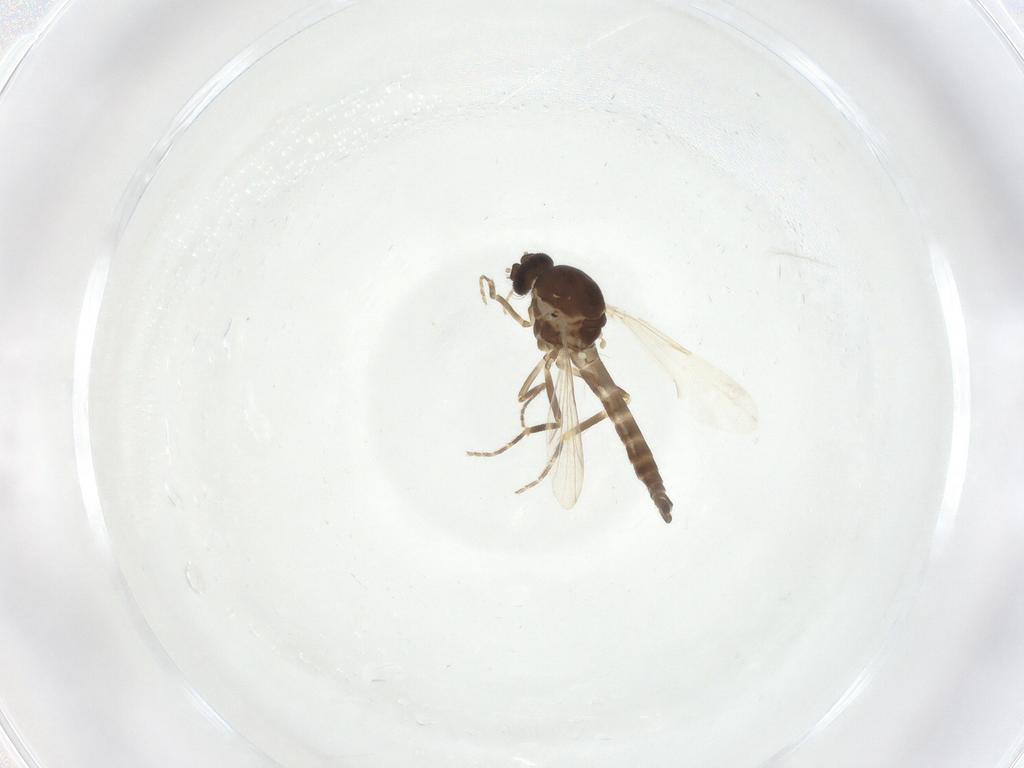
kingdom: Animalia
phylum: Arthropoda
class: Insecta
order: Diptera
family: Ceratopogonidae
